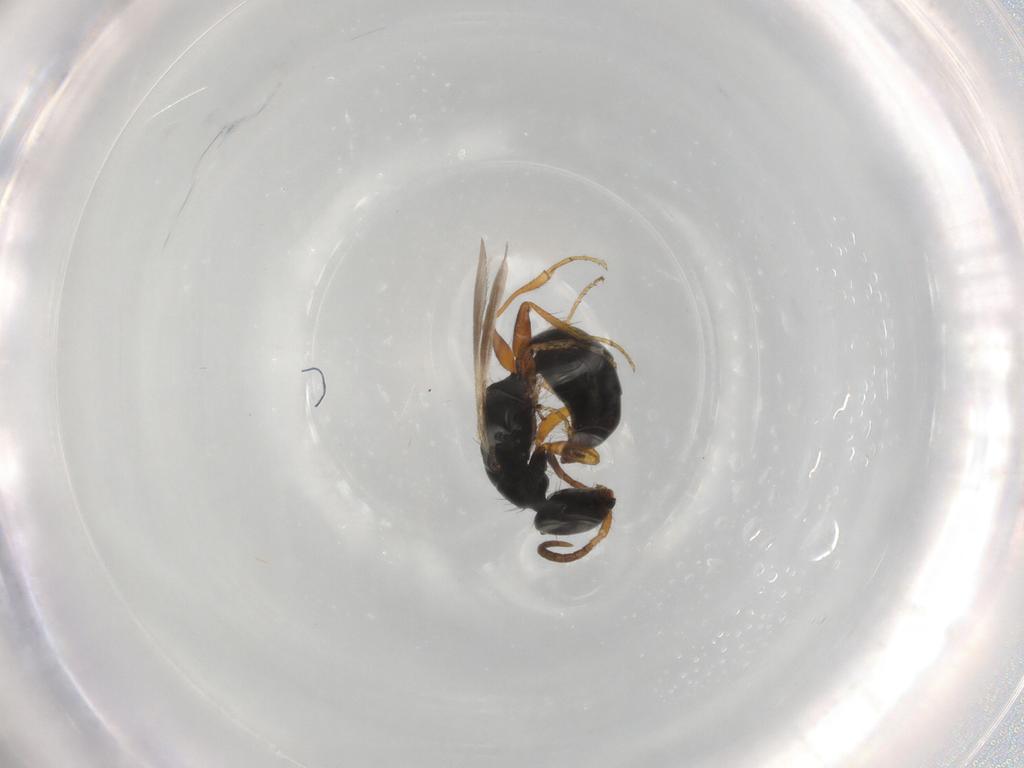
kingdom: Animalia
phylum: Arthropoda
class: Insecta
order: Hymenoptera
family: Bethylidae
